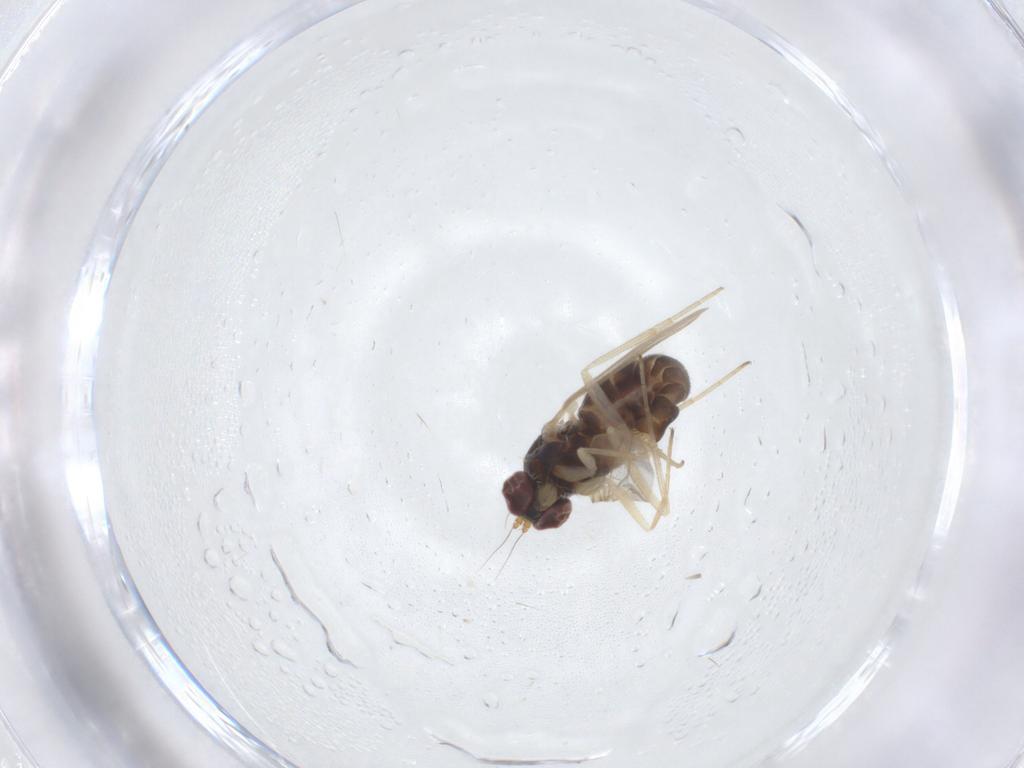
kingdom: Animalia
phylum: Arthropoda
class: Insecta
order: Diptera
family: Dolichopodidae
